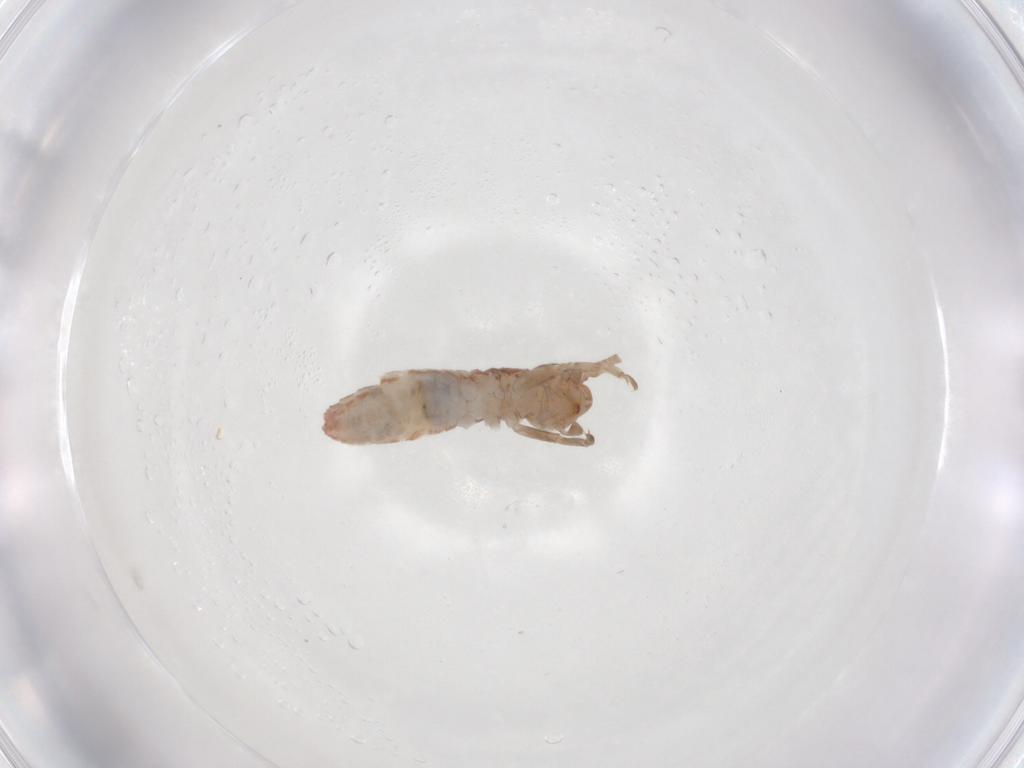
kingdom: Animalia
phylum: Arthropoda
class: Insecta
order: Orthoptera
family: Mogoplistidae
